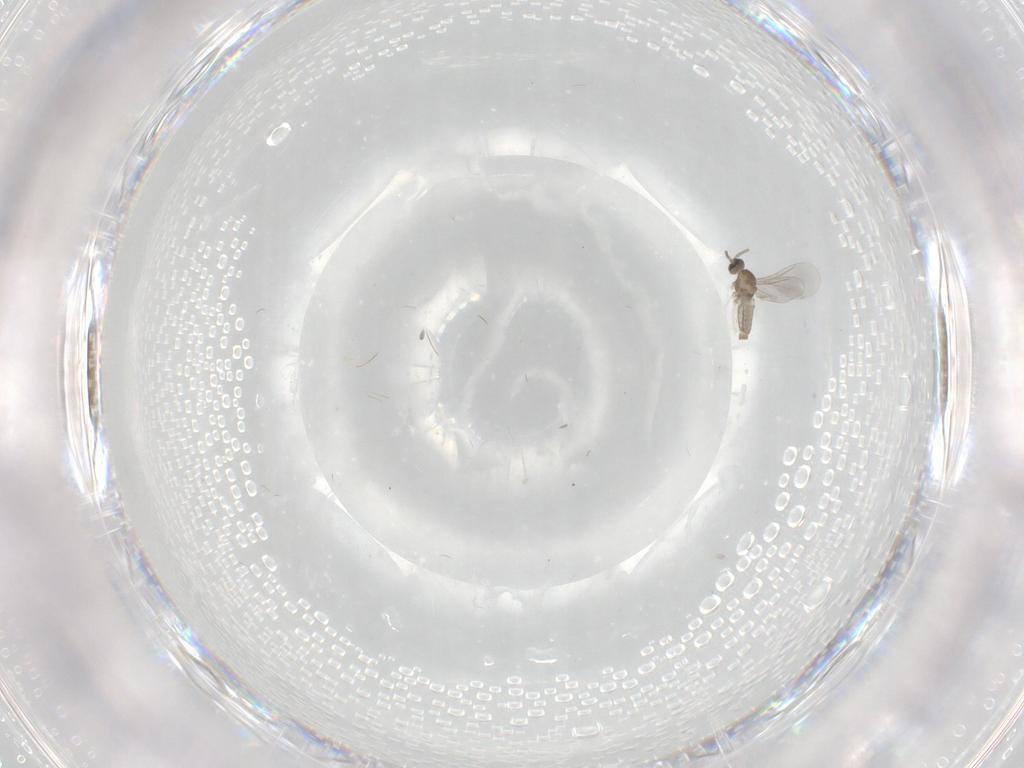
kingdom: Animalia
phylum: Arthropoda
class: Insecta
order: Diptera
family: Cecidomyiidae
